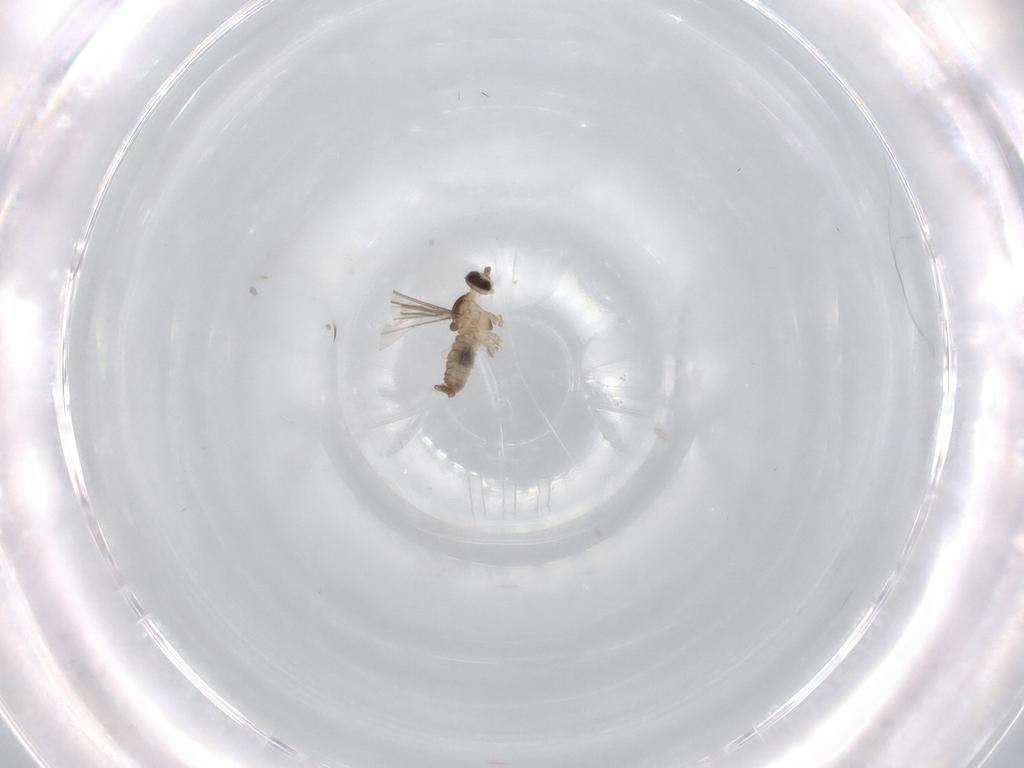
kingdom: Animalia
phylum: Arthropoda
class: Insecta
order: Diptera
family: Cecidomyiidae
